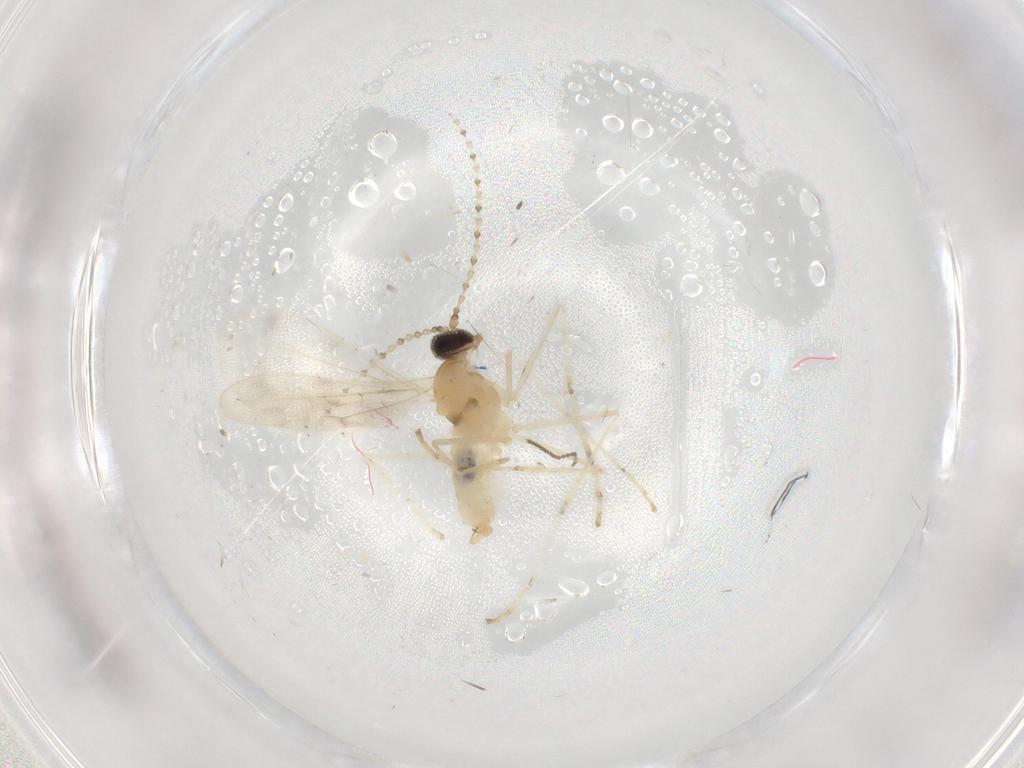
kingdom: Animalia
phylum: Arthropoda
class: Insecta
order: Diptera
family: Cecidomyiidae
